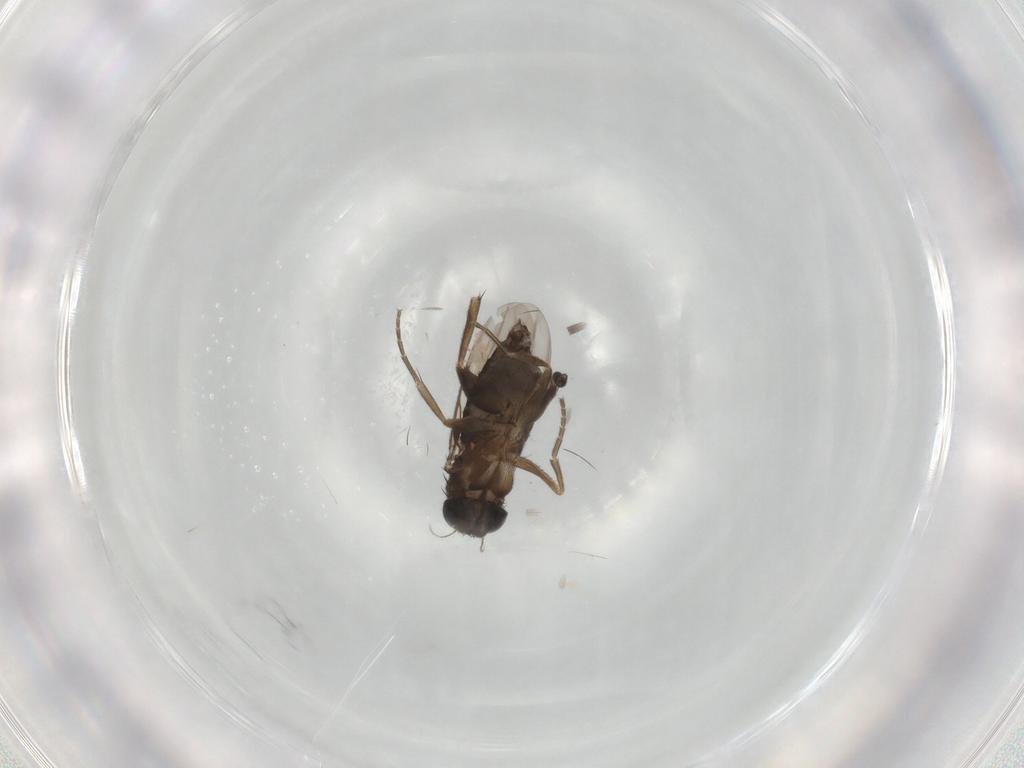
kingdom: Animalia
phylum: Arthropoda
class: Insecta
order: Diptera
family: Phoridae
